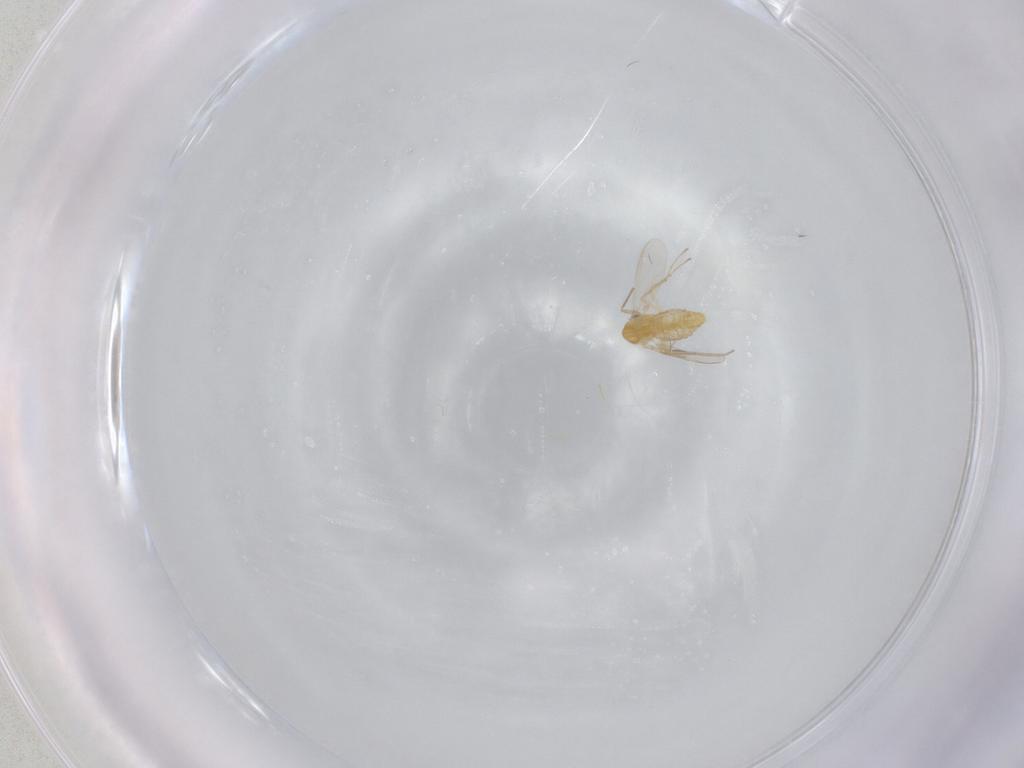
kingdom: Animalia
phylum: Arthropoda
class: Insecta
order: Diptera
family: Chironomidae
